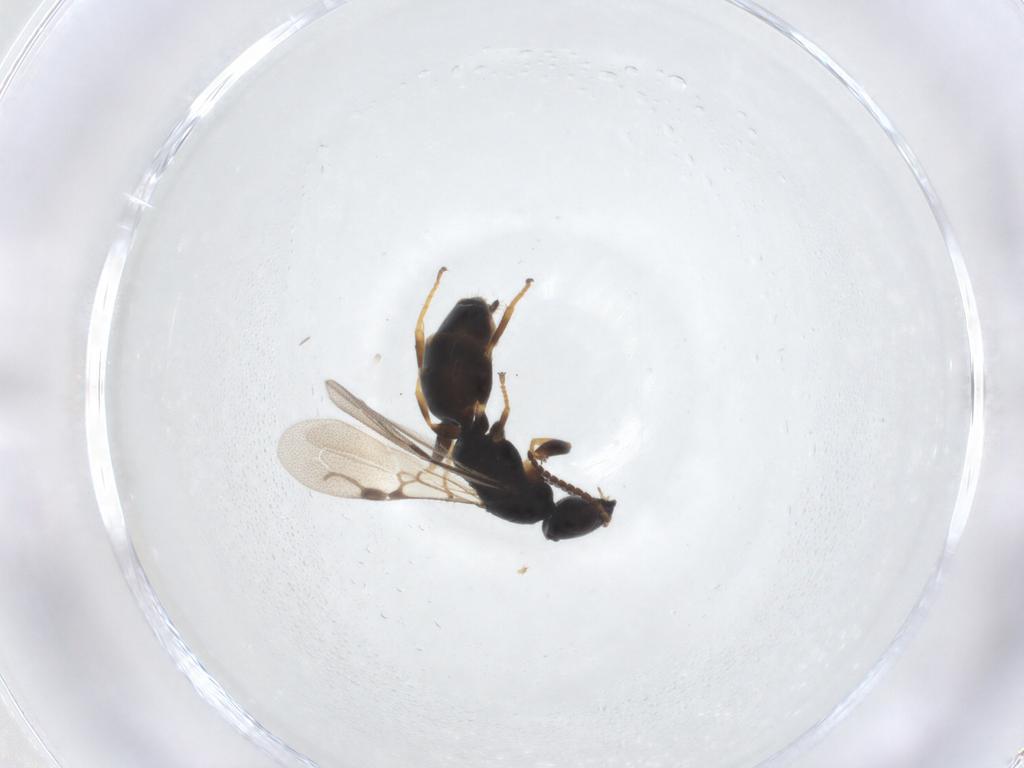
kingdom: Animalia
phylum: Arthropoda
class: Insecta
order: Hymenoptera
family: Bethylidae
